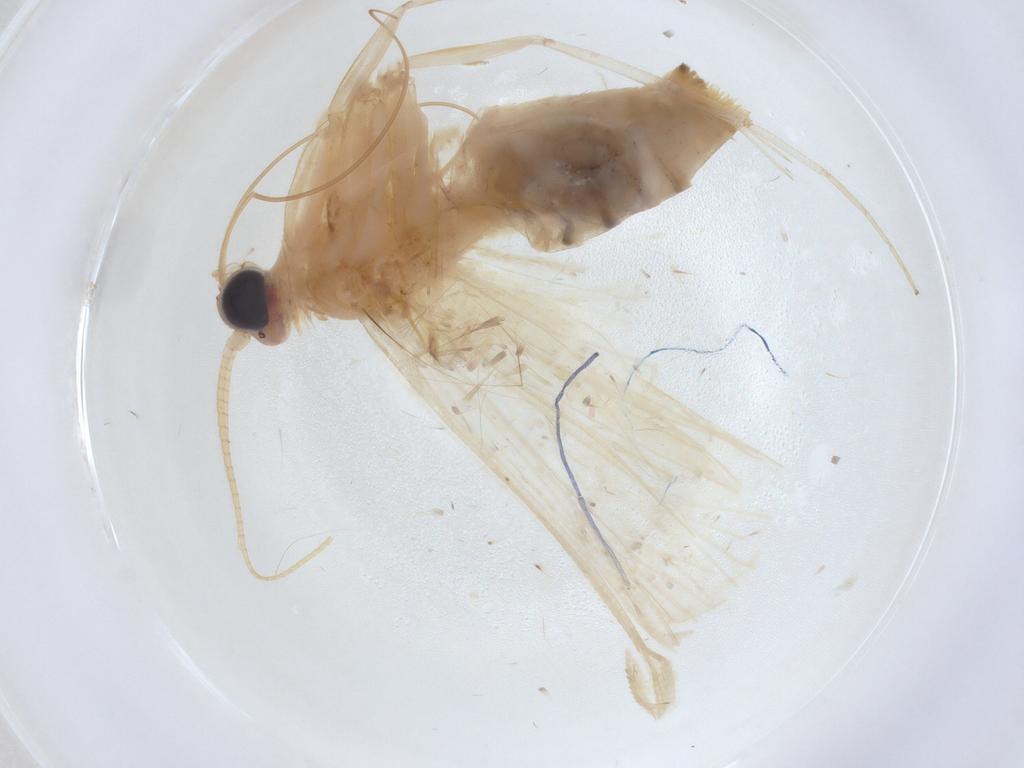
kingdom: Animalia
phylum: Arthropoda
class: Insecta
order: Lepidoptera
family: Crambidae
